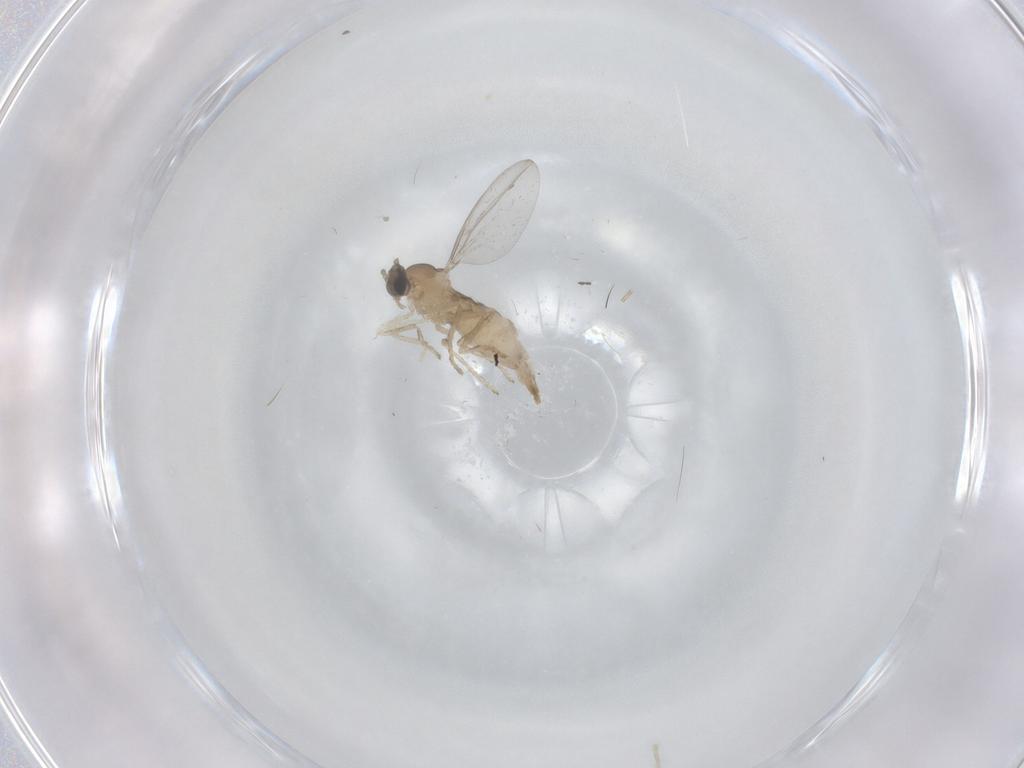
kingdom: Animalia
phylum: Arthropoda
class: Insecta
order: Diptera
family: Cecidomyiidae
